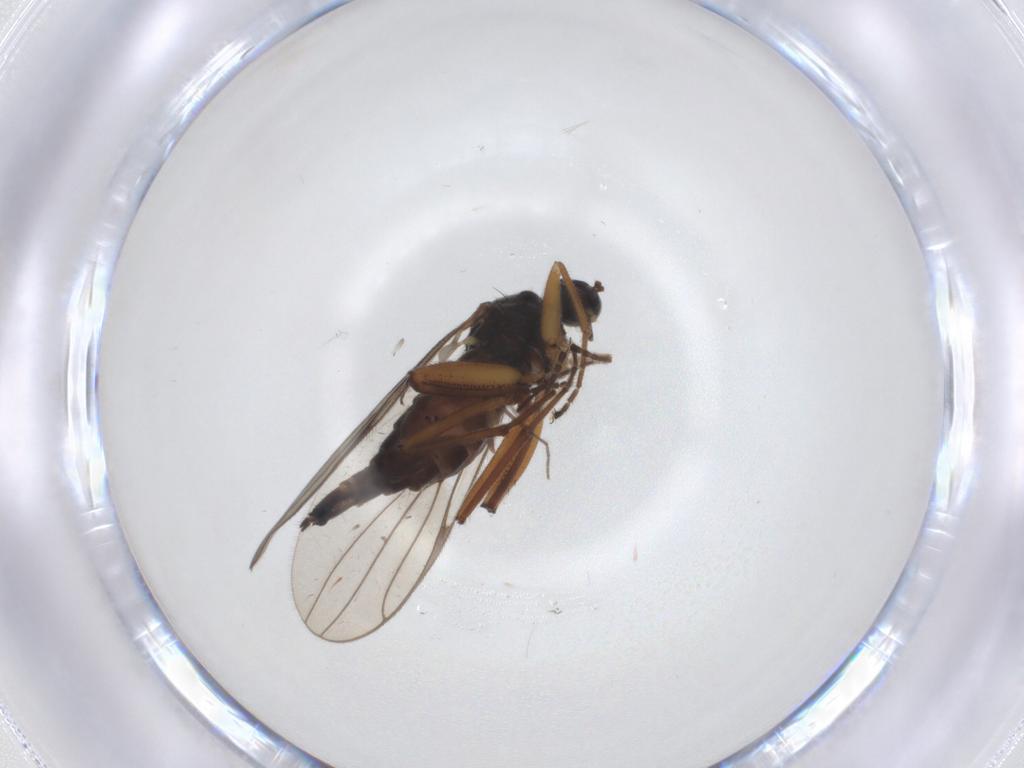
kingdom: Animalia
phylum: Arthropoda
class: Insecta
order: Diptera
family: Hybotidae
